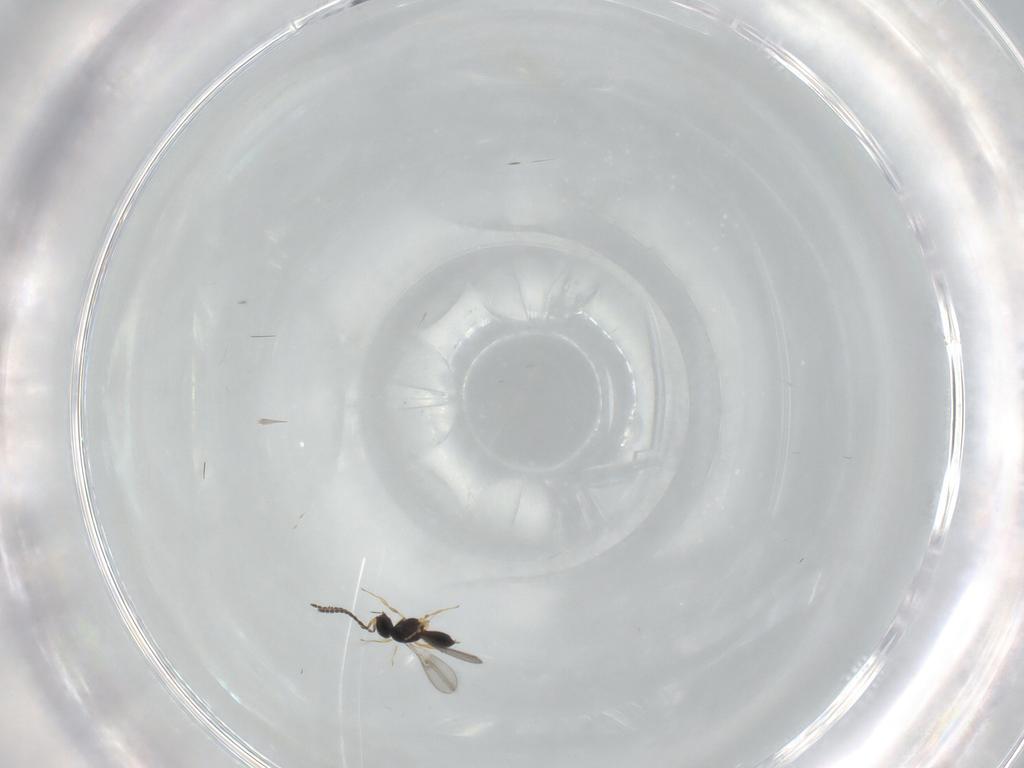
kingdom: Animalia
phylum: Arthropoda
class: Insecta
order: Hymenoptera
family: Scelionidae
